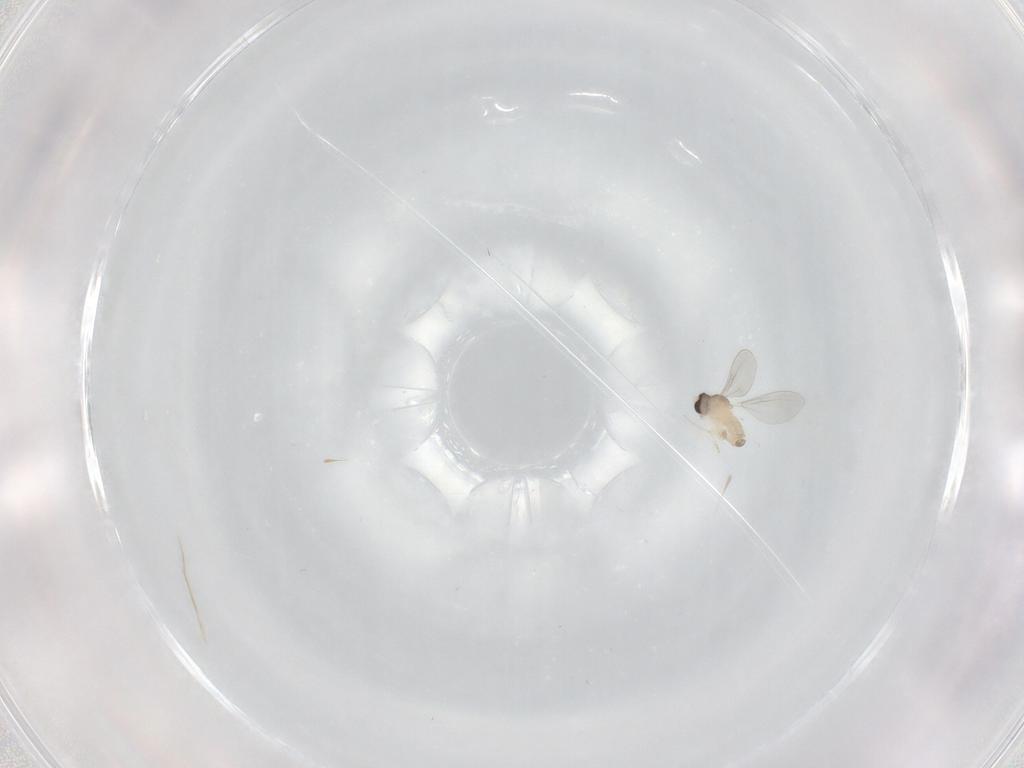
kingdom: Animalia
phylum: Arthropoda
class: Insecta
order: Diptera
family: Cecidomyiidae
